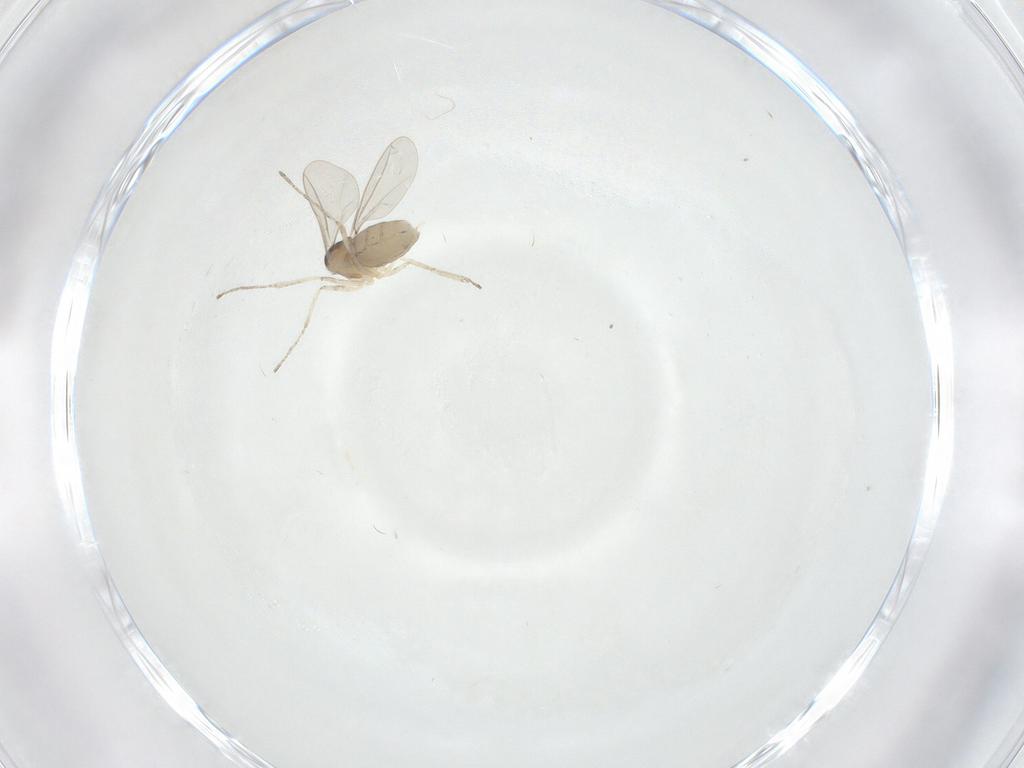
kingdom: Animalia
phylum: Arthropoda
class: Insecta
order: Diptera
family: Cecidomyiidae
